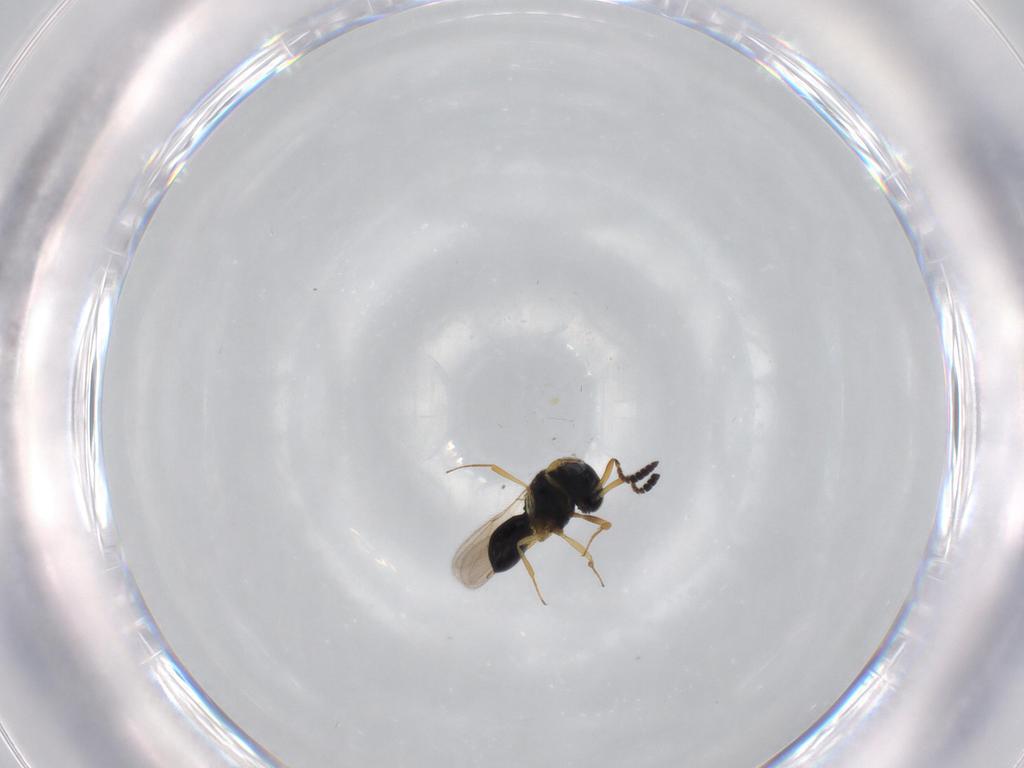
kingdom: Animalia
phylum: Arthropoda
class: Insecta
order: Hymenoptera
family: Scelionidae
